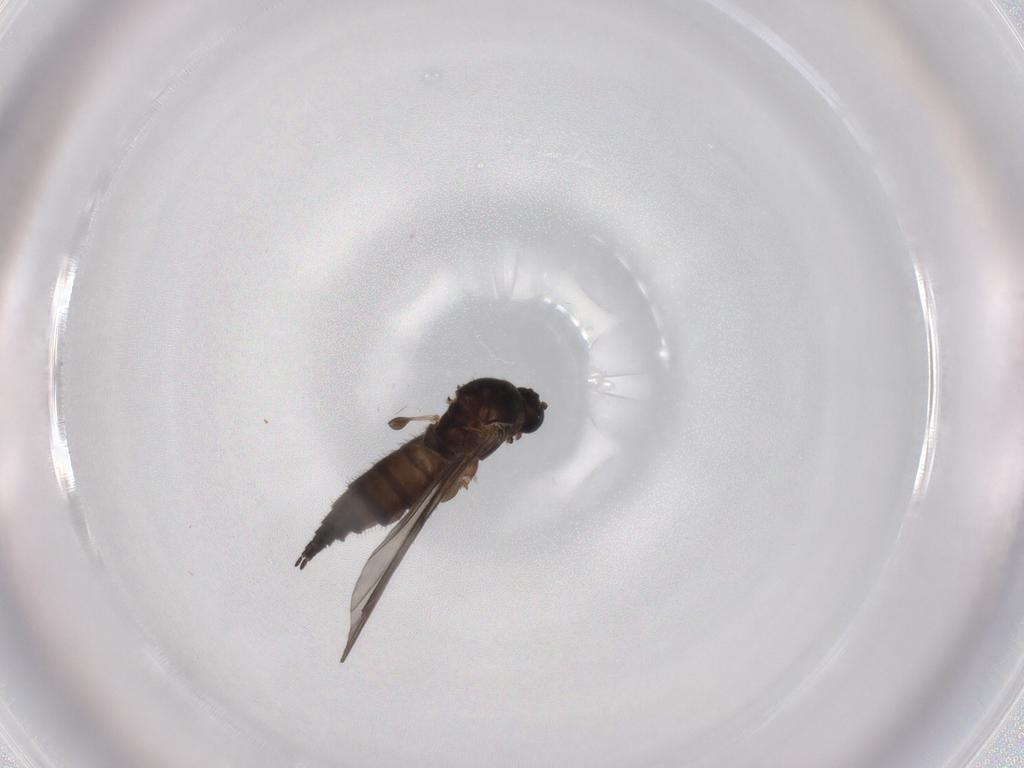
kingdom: Animalia
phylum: Arthropoda
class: Insecta
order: Diptera
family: Sciaridae
